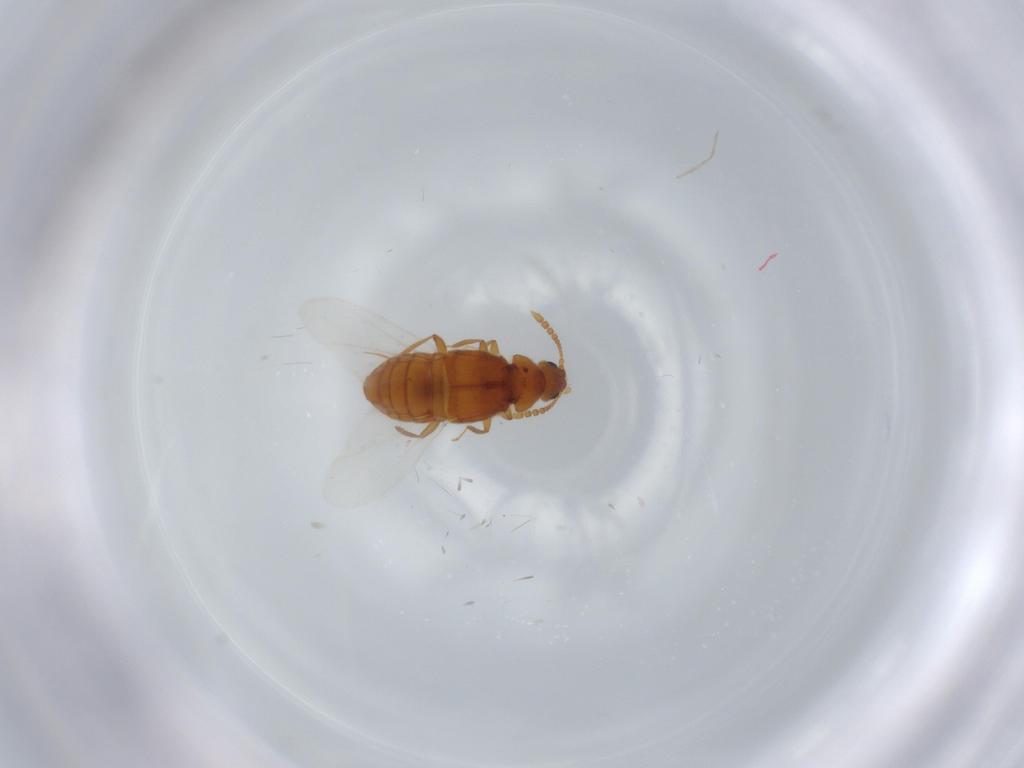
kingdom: Animalia
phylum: Arthropoda
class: Insecta
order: Coleoptera
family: Staphylinidae
